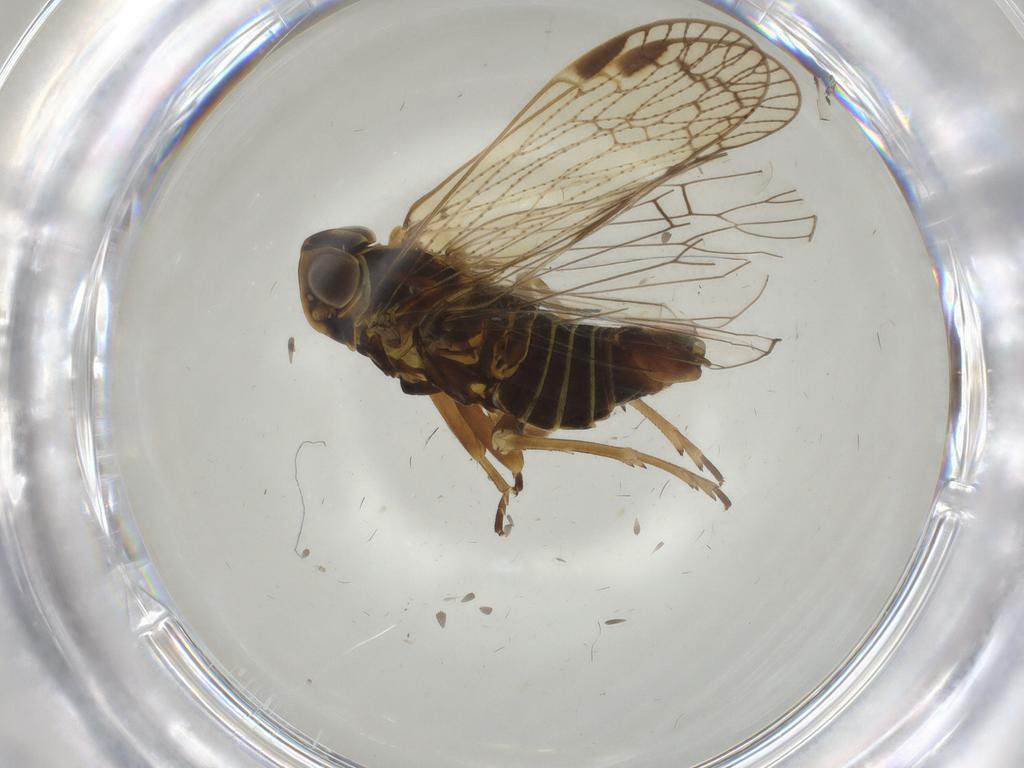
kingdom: Animalia
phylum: Arthropoda
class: Insecta
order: Hemiptera
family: Cixiidae
